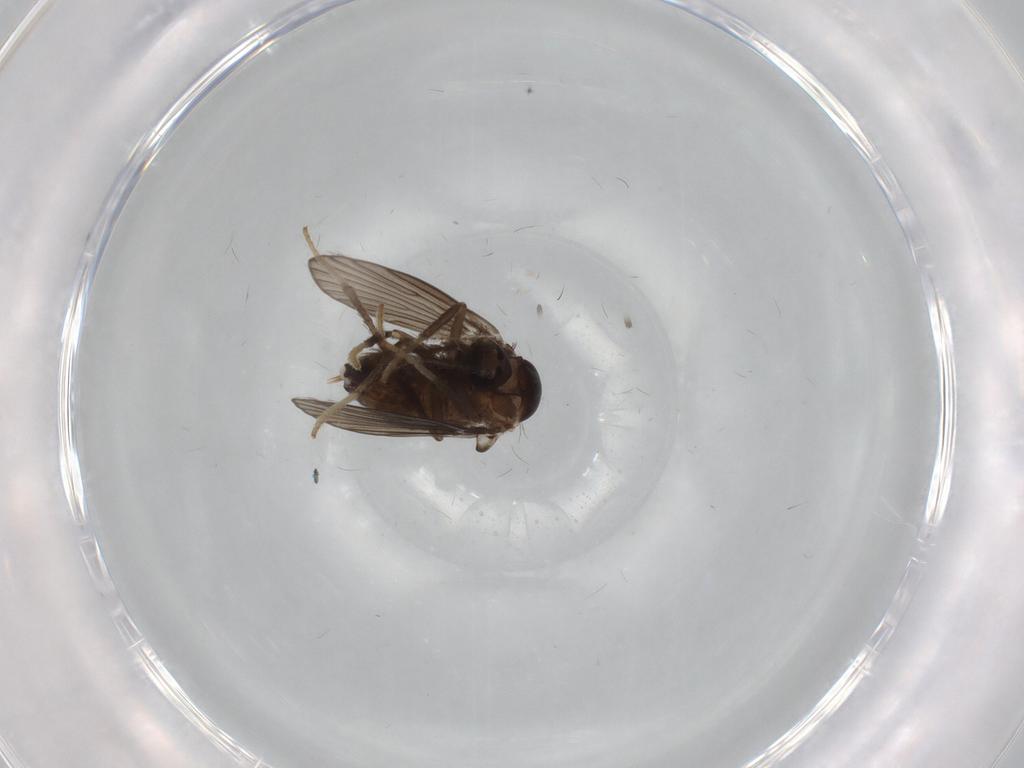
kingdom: Animalia
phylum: Arthropoda
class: Insecta
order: Diptera
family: Psychodidae
